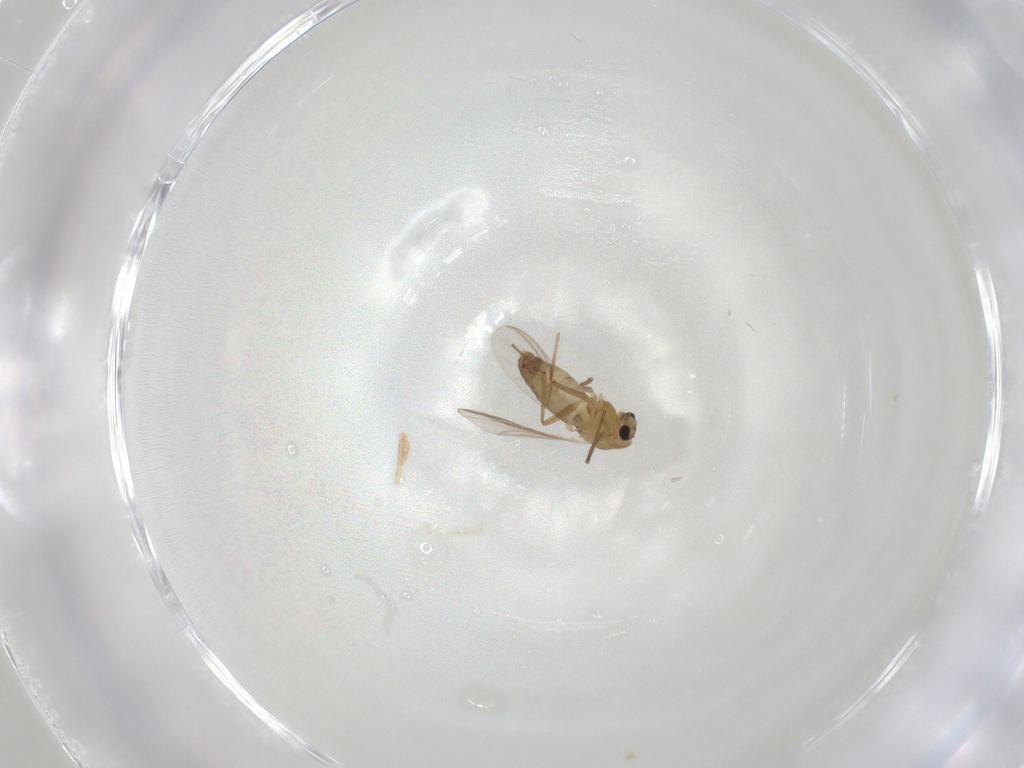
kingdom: Animalia
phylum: Arthropoda
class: Insecta
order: Diptera
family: Chironomidae
